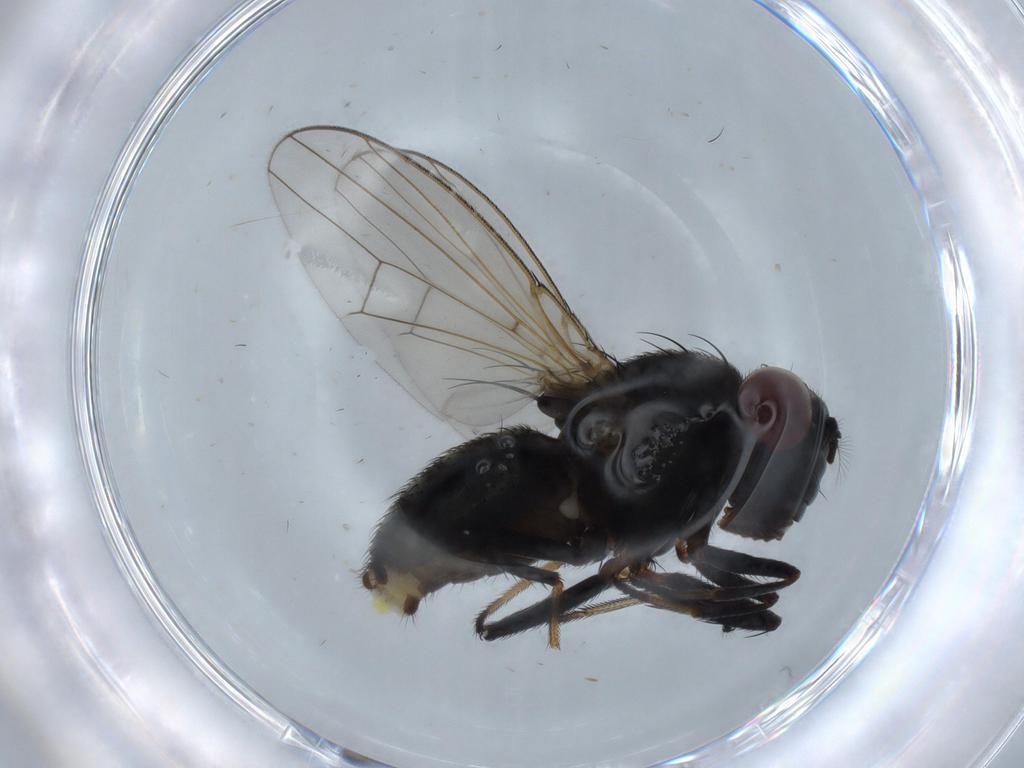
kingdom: Animalia
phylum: Arthropoda
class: Insecta
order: Diptera
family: Ephydridae
